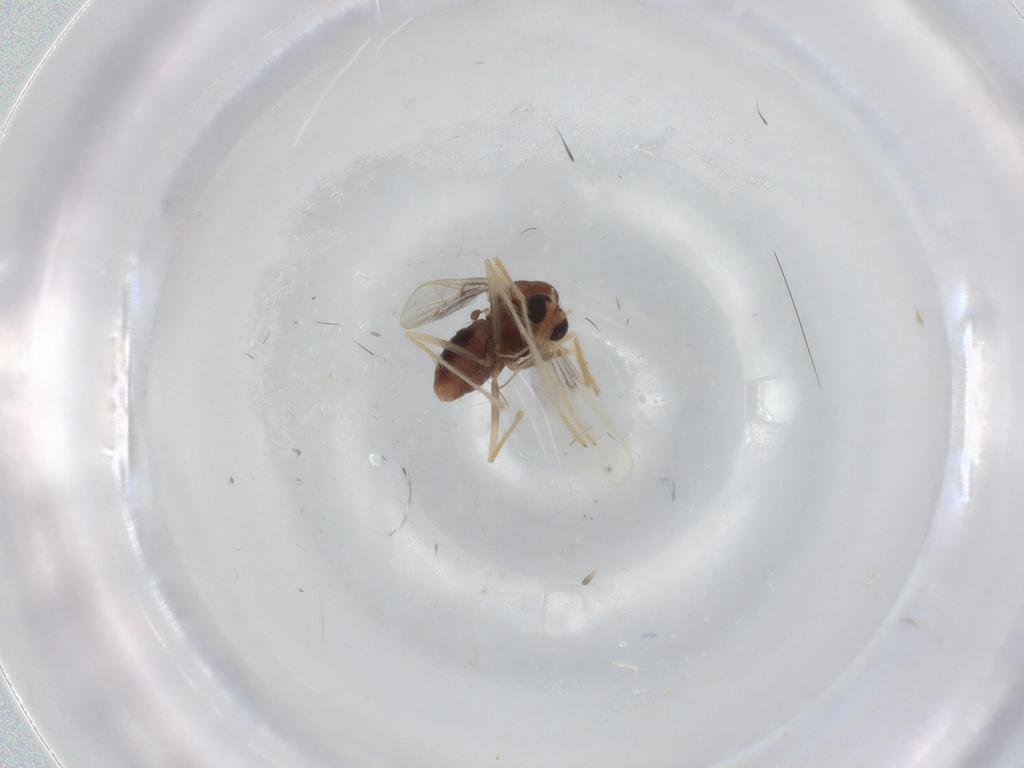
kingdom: Animalia
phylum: Arthropoda
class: Insecta
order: Diptera
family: Chironomidae
